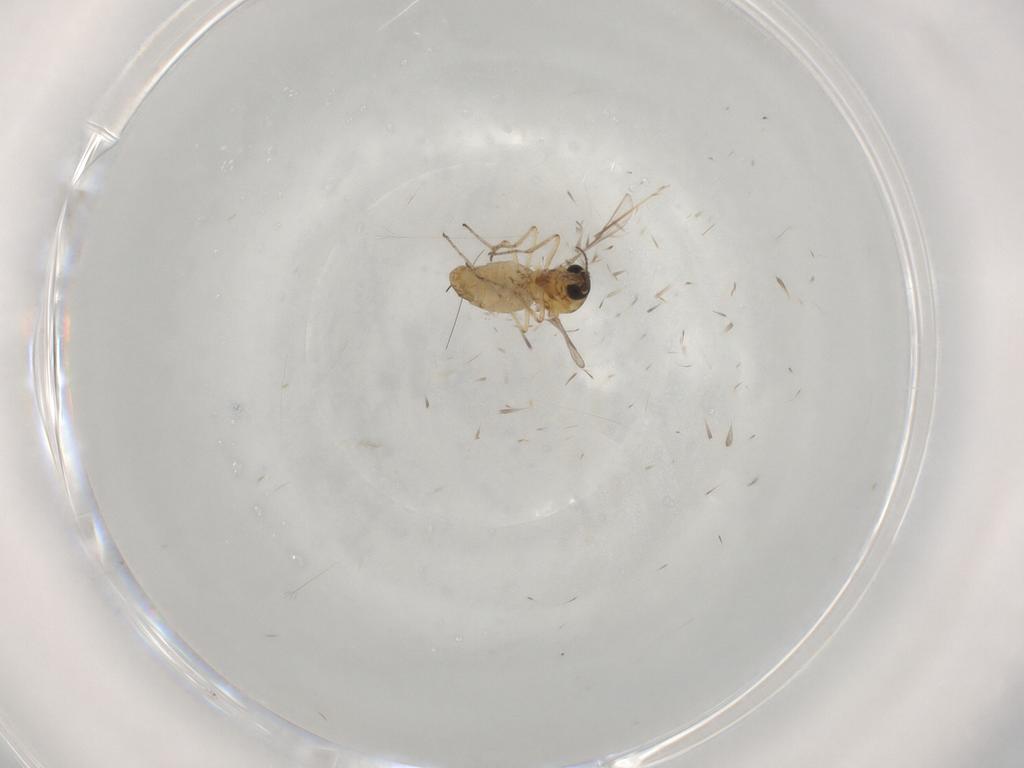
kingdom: Animalia
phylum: Arthropoda
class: Insecta
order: Diptera
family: Ceratopogonidae
